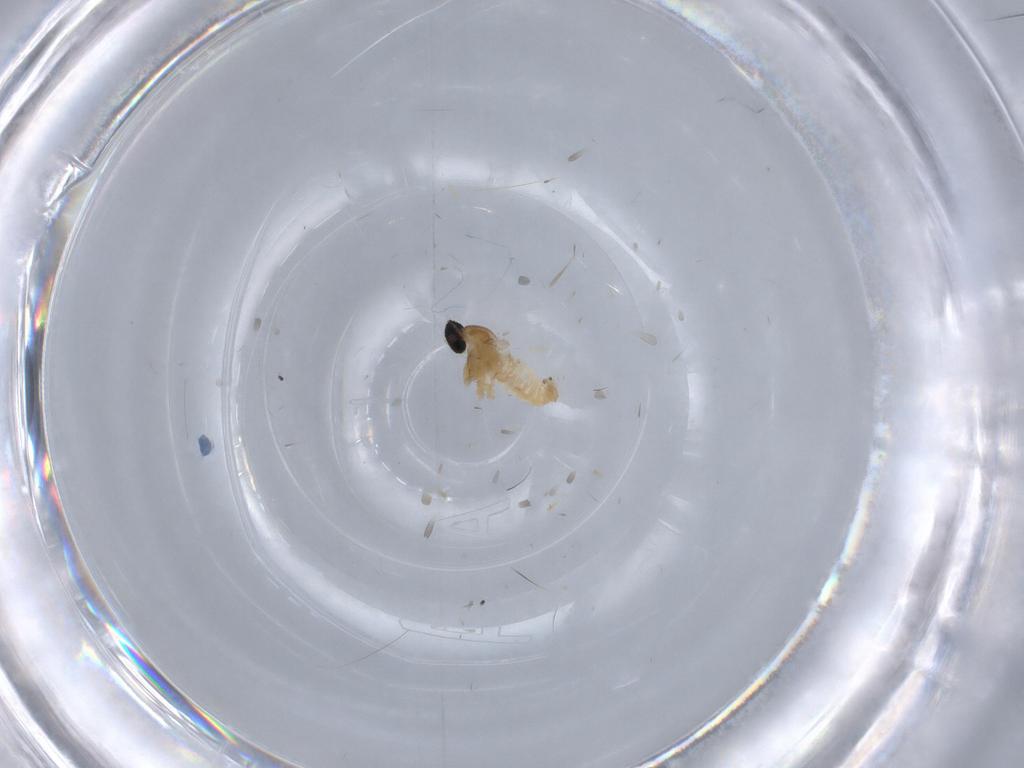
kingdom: Animalia
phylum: Arthropoda
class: Insecta
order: Diptera
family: Cecidomyiidae
